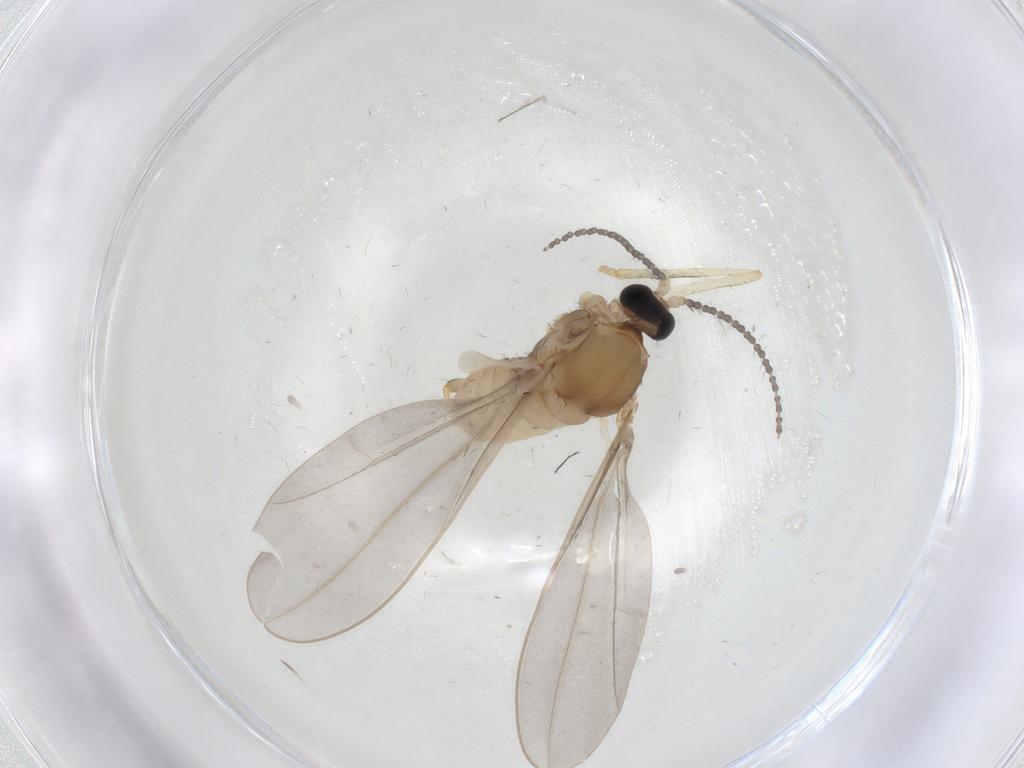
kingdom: Animalia
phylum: Arthropoda
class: Insecta
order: Diptera
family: Cecidomyiidae
